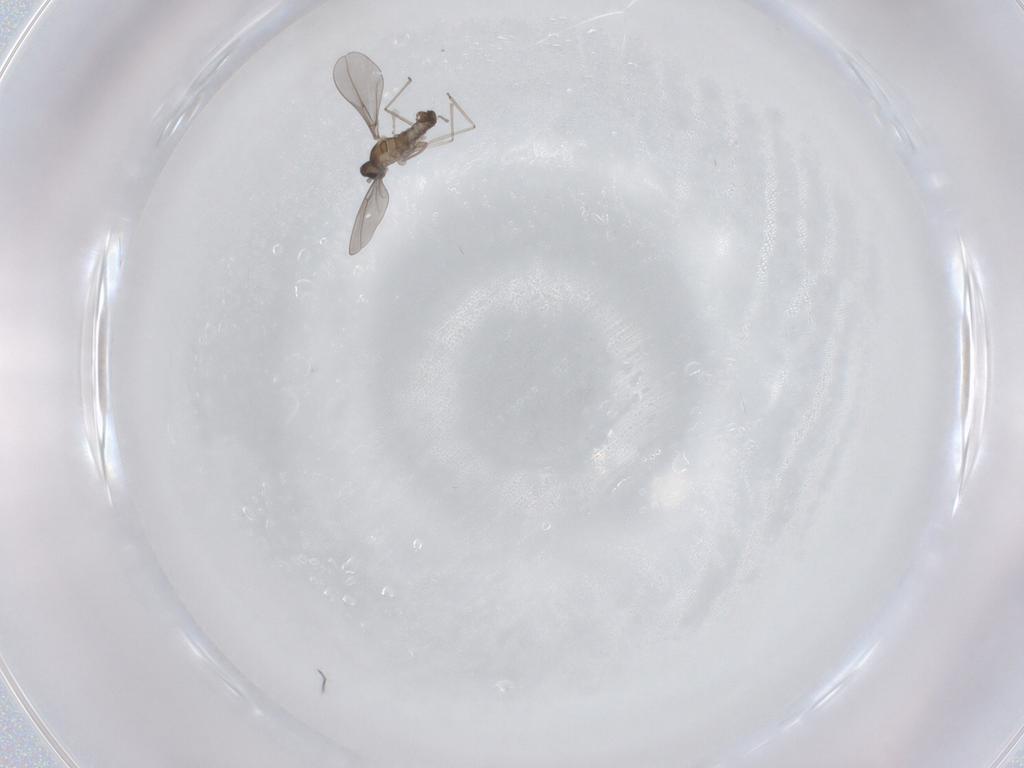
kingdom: Animalia
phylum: Arthropoda
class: Insecta
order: Diptera
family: Cecidomyiidae
